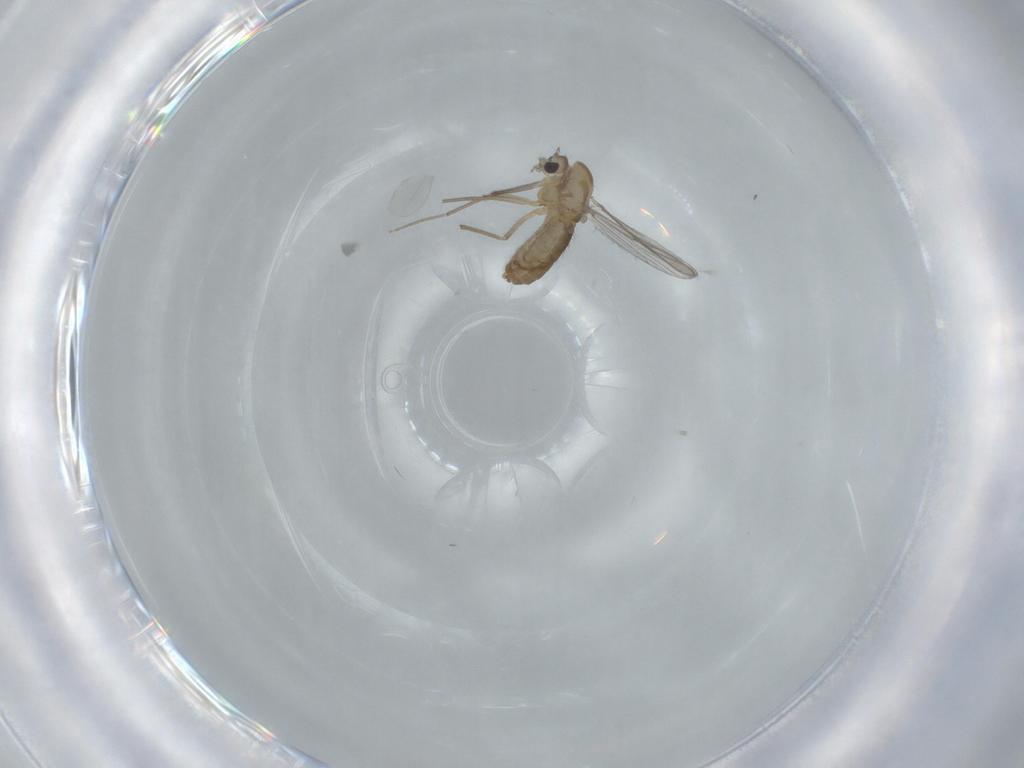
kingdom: Animalia
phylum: Arthropoda
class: Insecta
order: Diptera
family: Chironomidae
